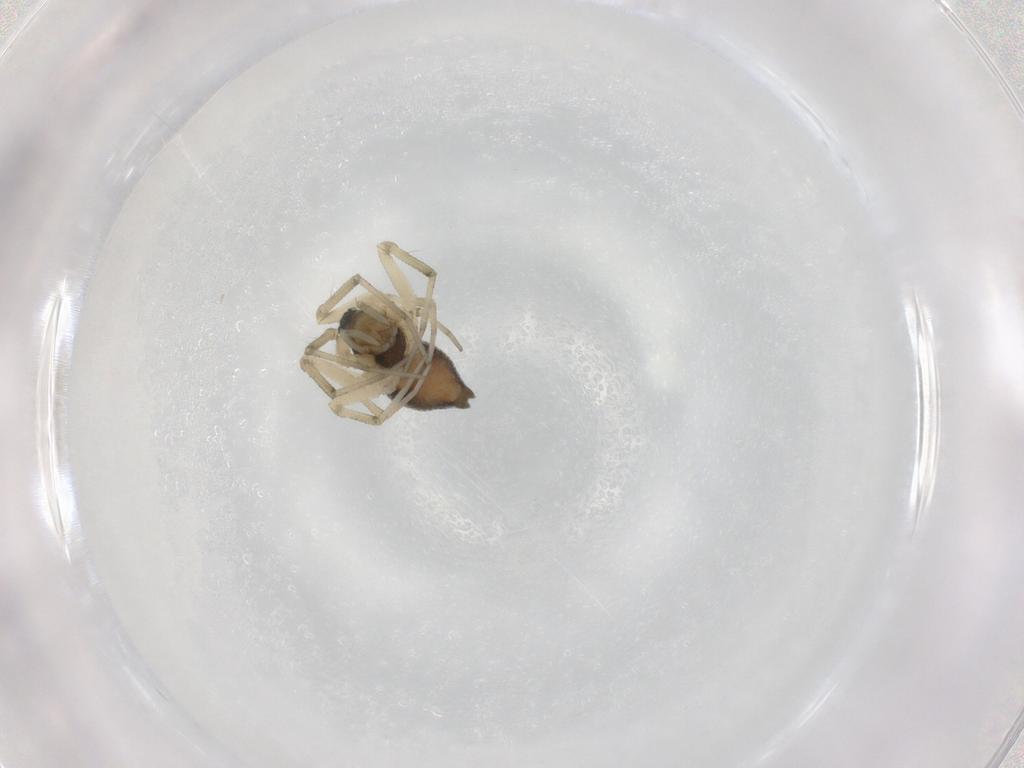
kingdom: Animalia
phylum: Arthropoda
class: Arachnida
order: Araneae
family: Linyphiidae
